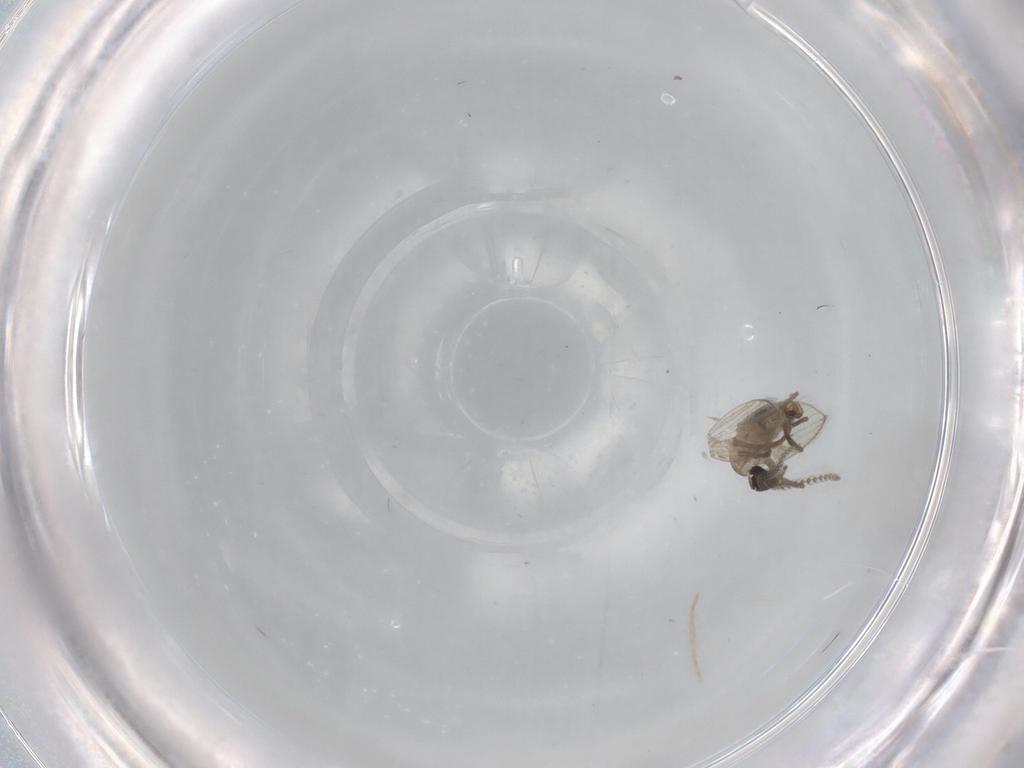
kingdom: Animalia
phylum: Arthropoda
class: Insecta
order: Diptera
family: Psychodidae
